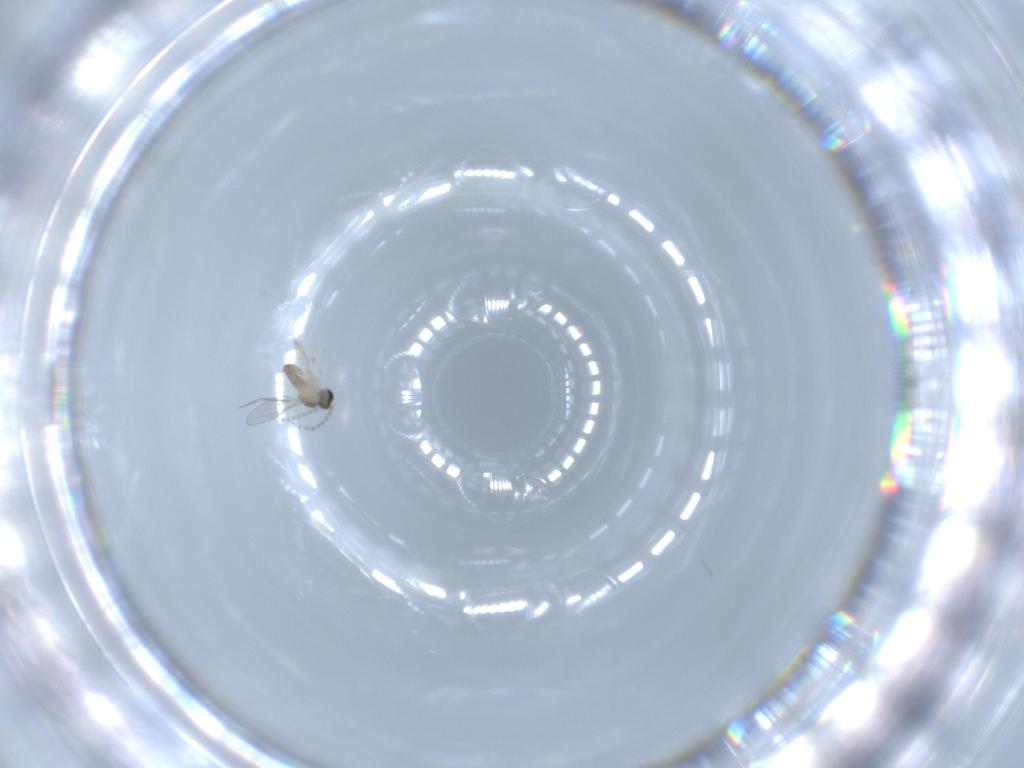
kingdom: Animalia
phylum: Arthropoda
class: Insecta
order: Diptera
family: Cecidomyiidae
